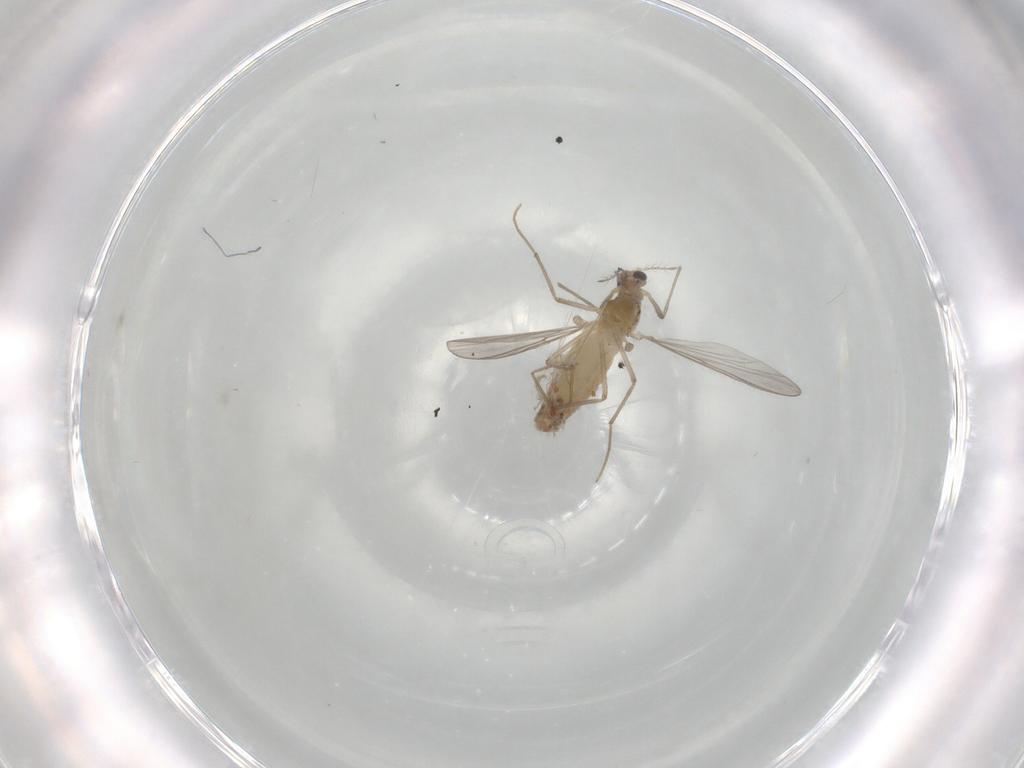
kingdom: Animalia
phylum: Arthropoda
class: Insecta
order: Diptera
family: Chironomidae
